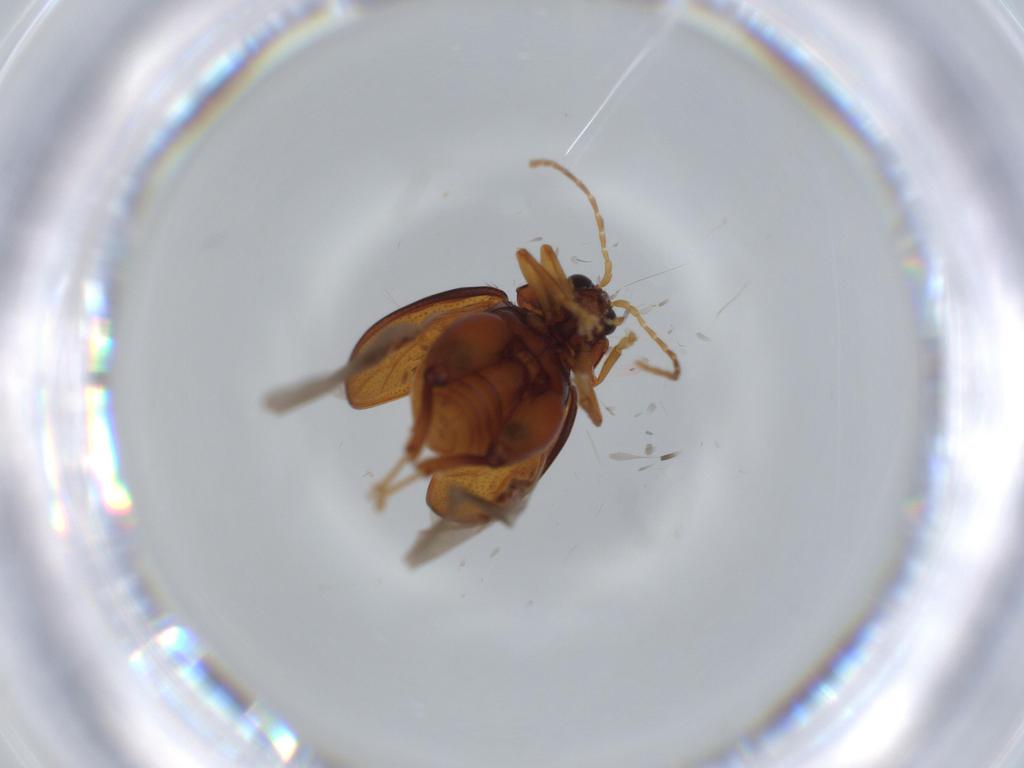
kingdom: Animalia
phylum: Arthropoda
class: Insecta
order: Coleoptera
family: Chrysomelidae
